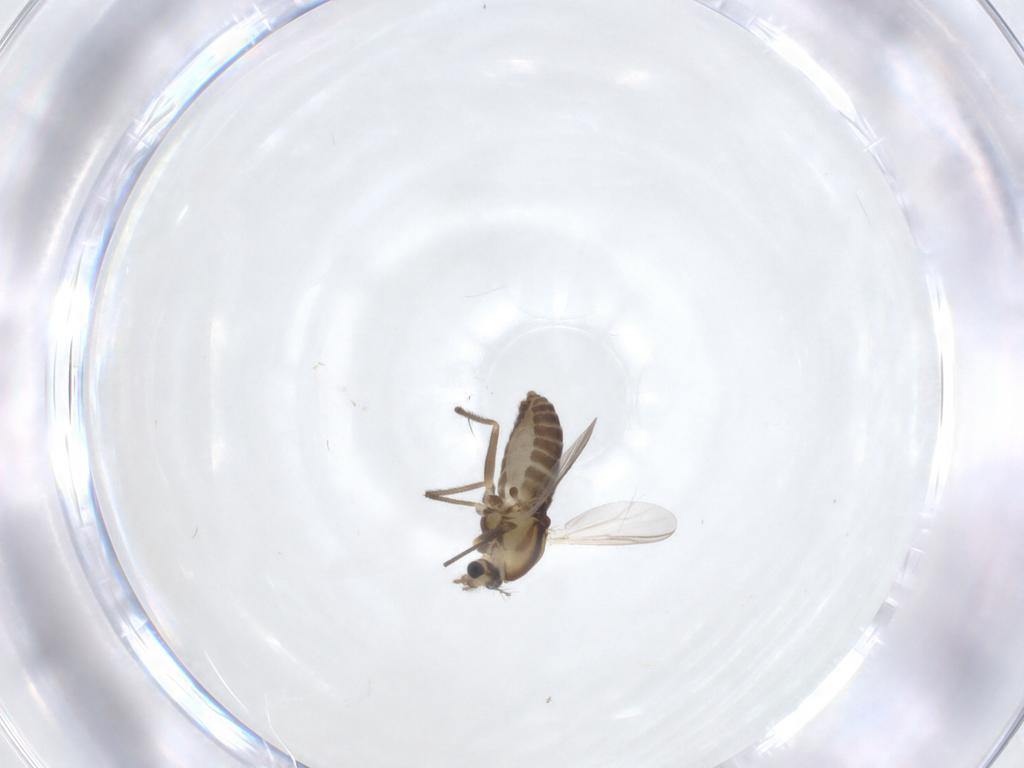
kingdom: Animalia
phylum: Arthropoda
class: Insecta
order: Diptera
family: Chironomidae
